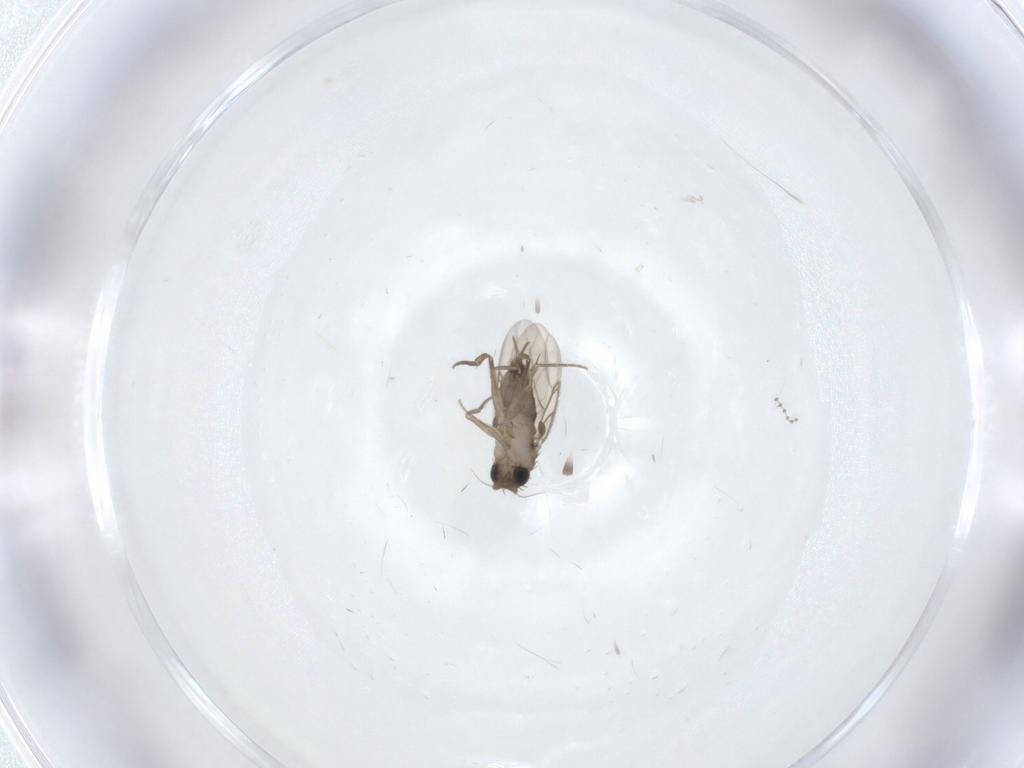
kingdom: Animalia
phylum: Arthropoda
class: Insecta
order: Diptera
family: Phoridae
